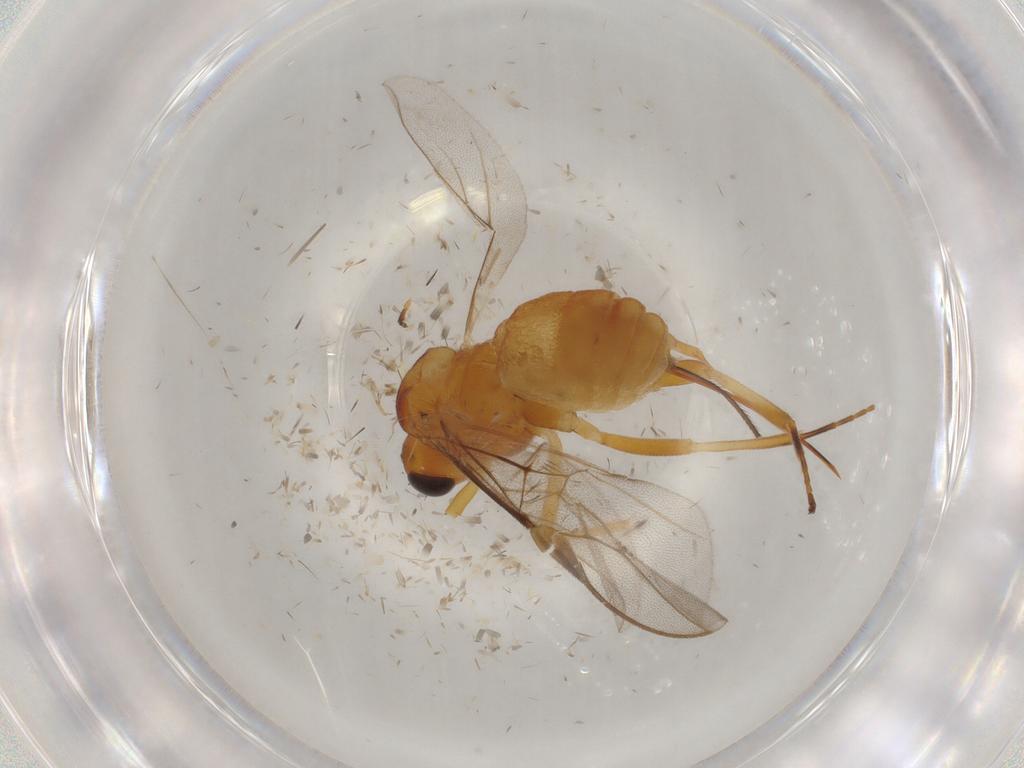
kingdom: Animalia
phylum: Arthropoda
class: Insecta
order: Hymenoptera
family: Braconidae
